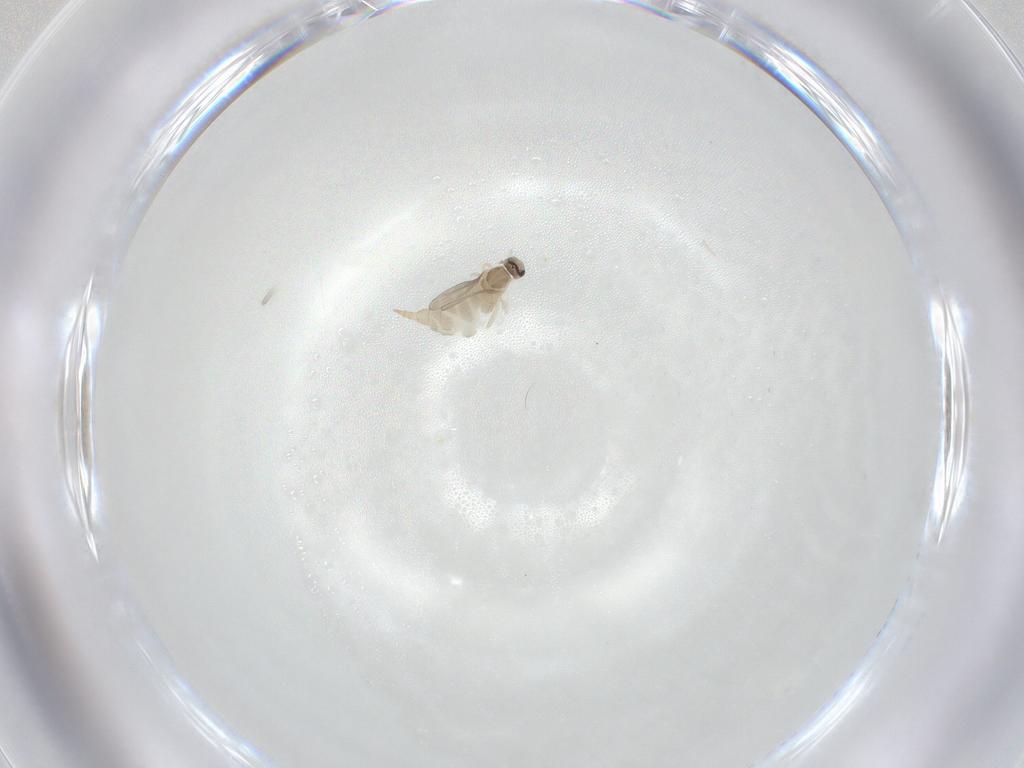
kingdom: Animalia
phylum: Arthropoda
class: Insecta
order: Diptera
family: Cecidomyiidae
